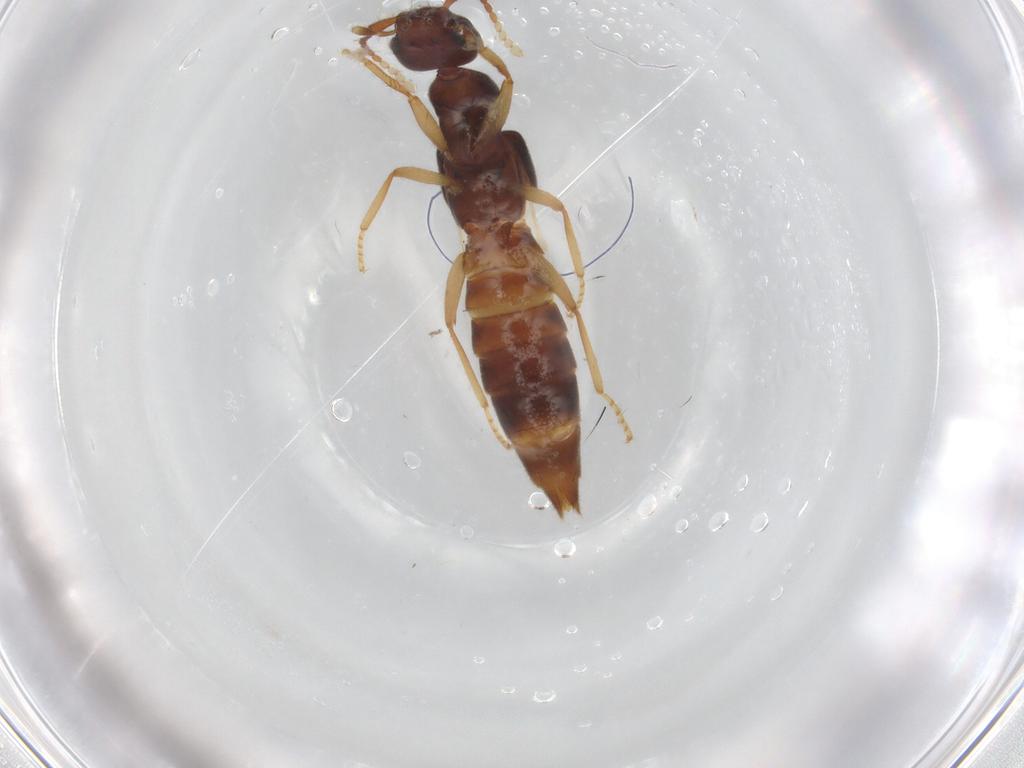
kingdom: Animalia
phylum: Arthropoda
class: Insecta
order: Coleoptera
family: Staphylinidae
